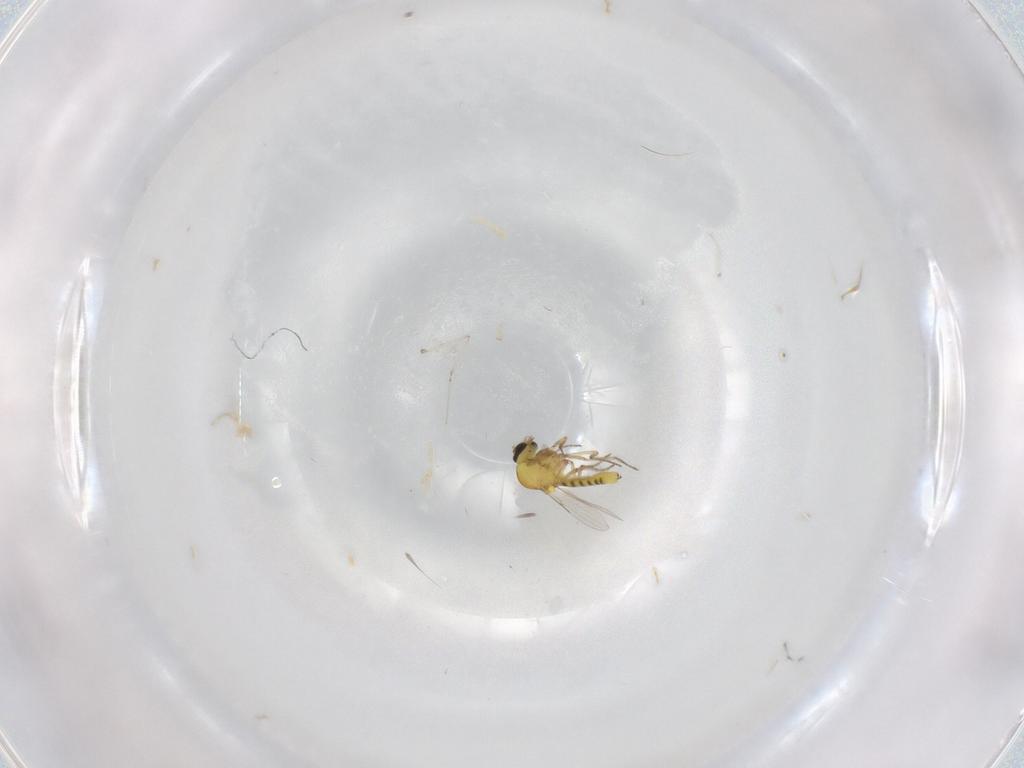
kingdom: Animalia
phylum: Arthropoda
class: Insecta
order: Diptera
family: Ceratopogonidae
